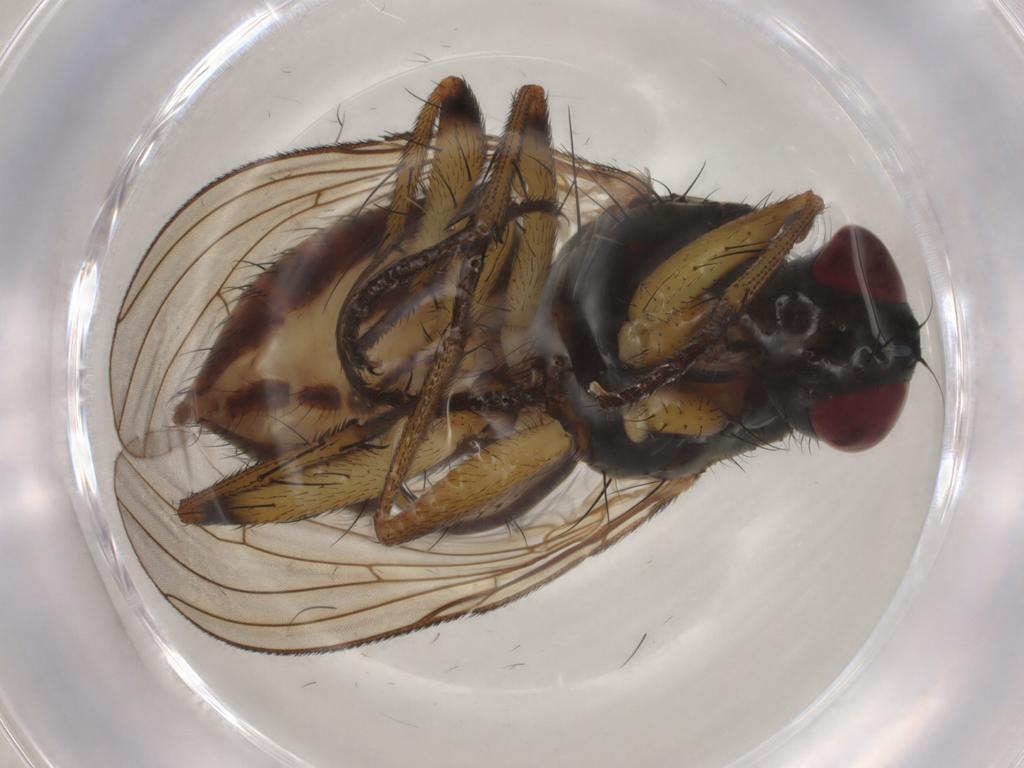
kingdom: Animalia
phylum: Arthropoda
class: Insecta
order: Diptera
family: Muscidae
